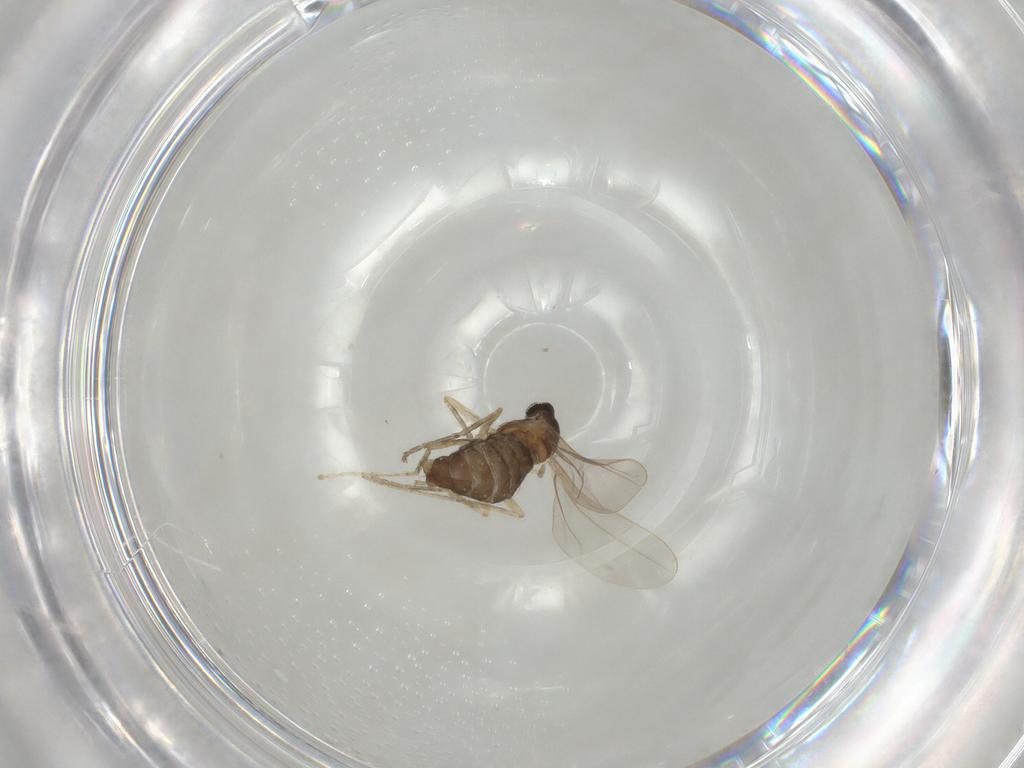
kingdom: Animalia
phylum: Arthropoda
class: Insecta
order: Diptera
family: Cecidomyiidae
